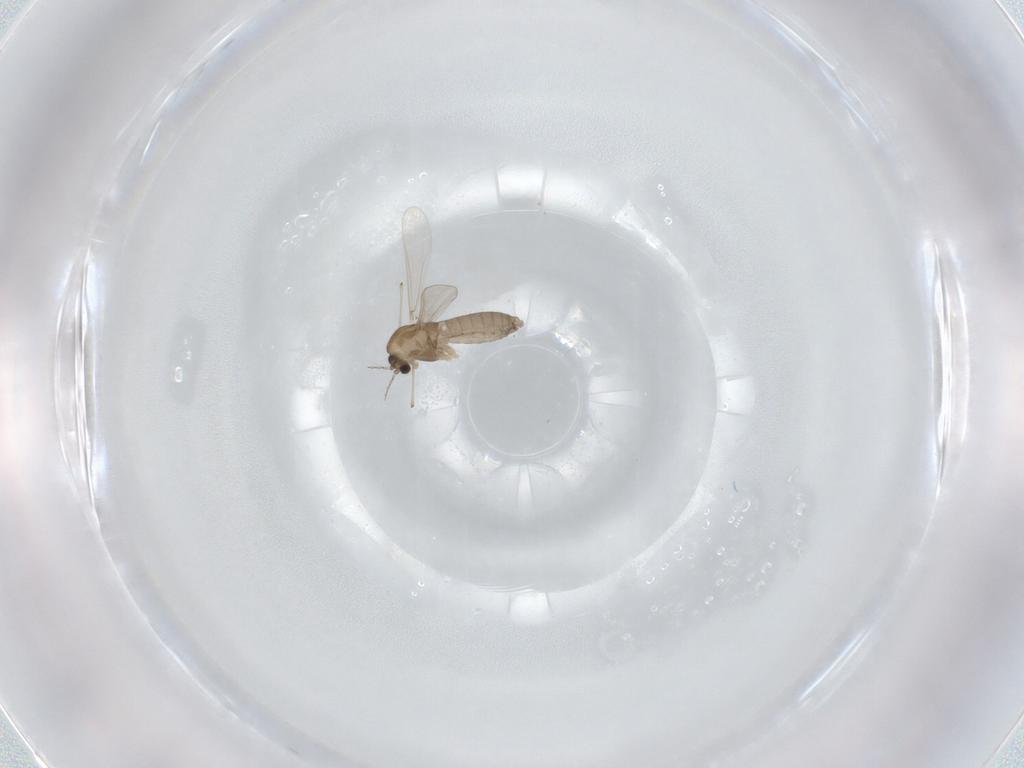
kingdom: Animalia
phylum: Arthropoda
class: Insecta
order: Diptera
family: Chironomidae
